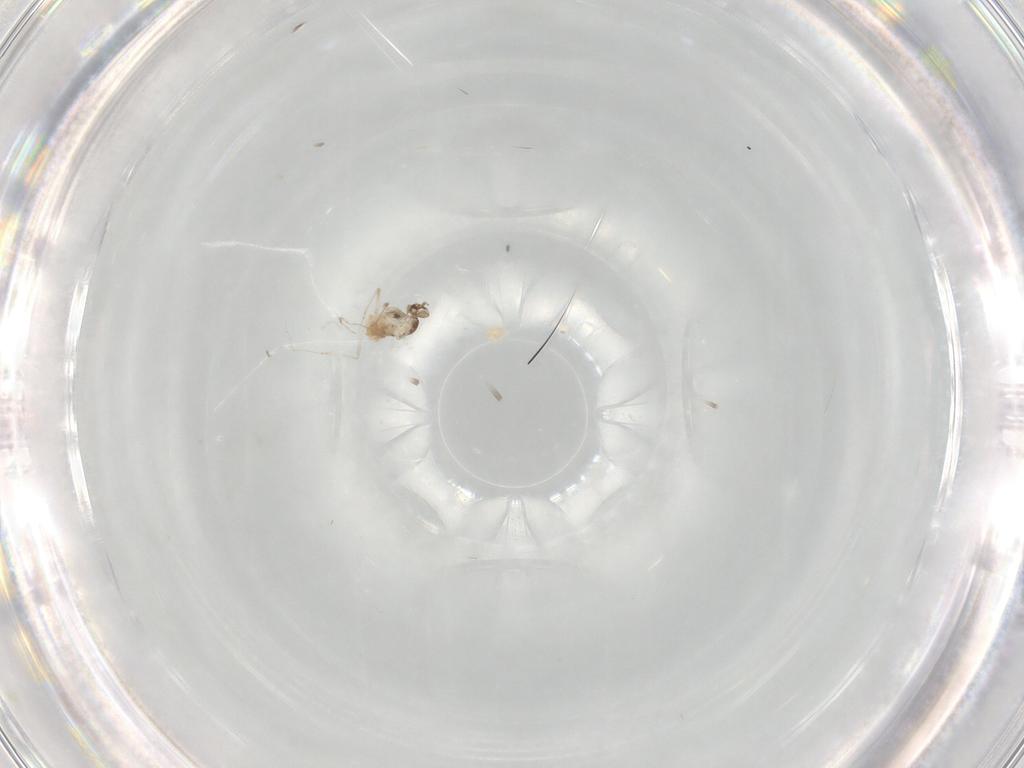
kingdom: Animalia
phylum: Arthropoda
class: Insecta
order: Diptera
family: Cecidomyiidae
